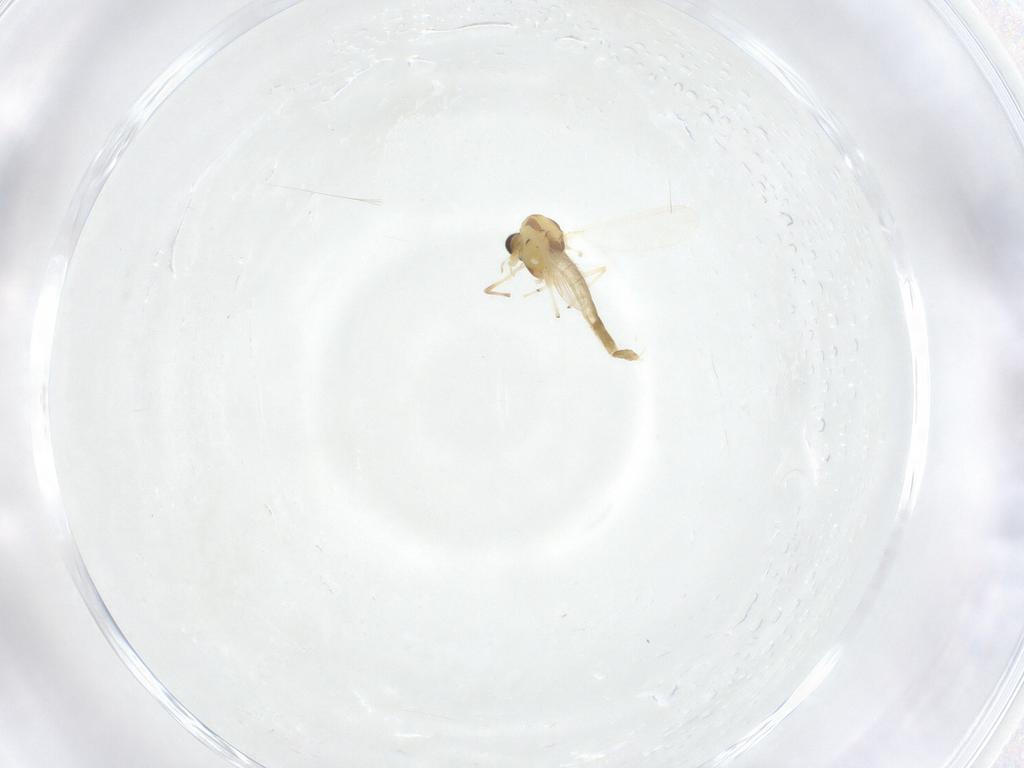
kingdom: Animalia
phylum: Arthropoda
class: Insecta
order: Diptera
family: Chironomidae
